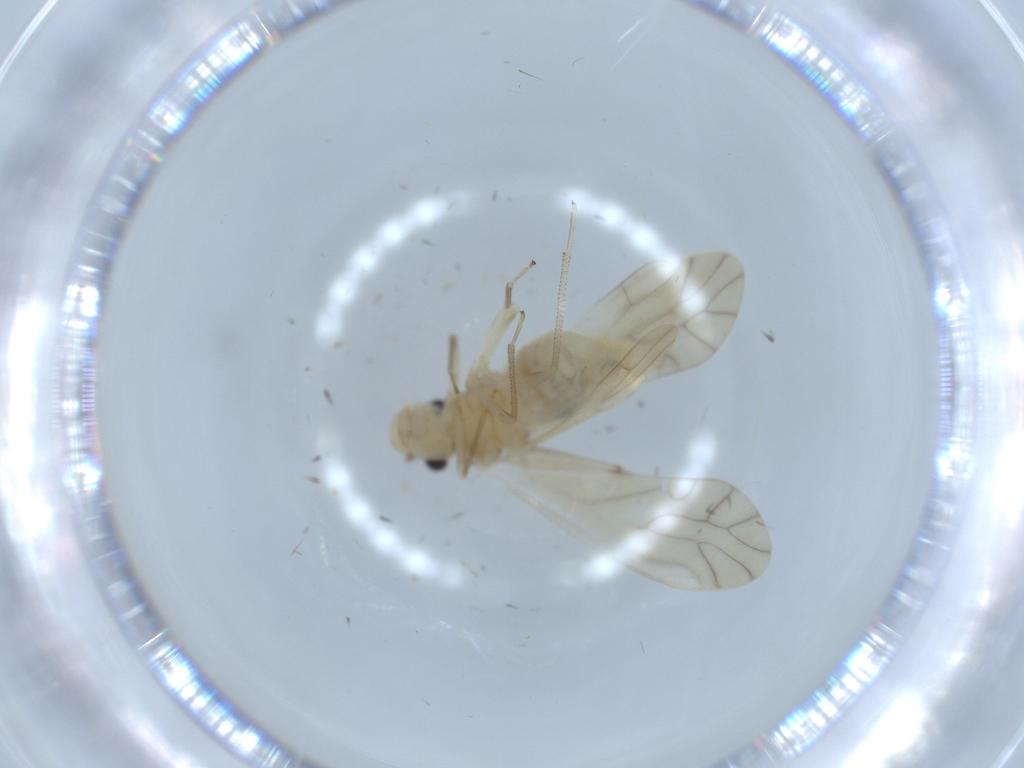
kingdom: Animalia
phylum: Arthropoda
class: Insecta
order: Psocodea
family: Lachesillidae
